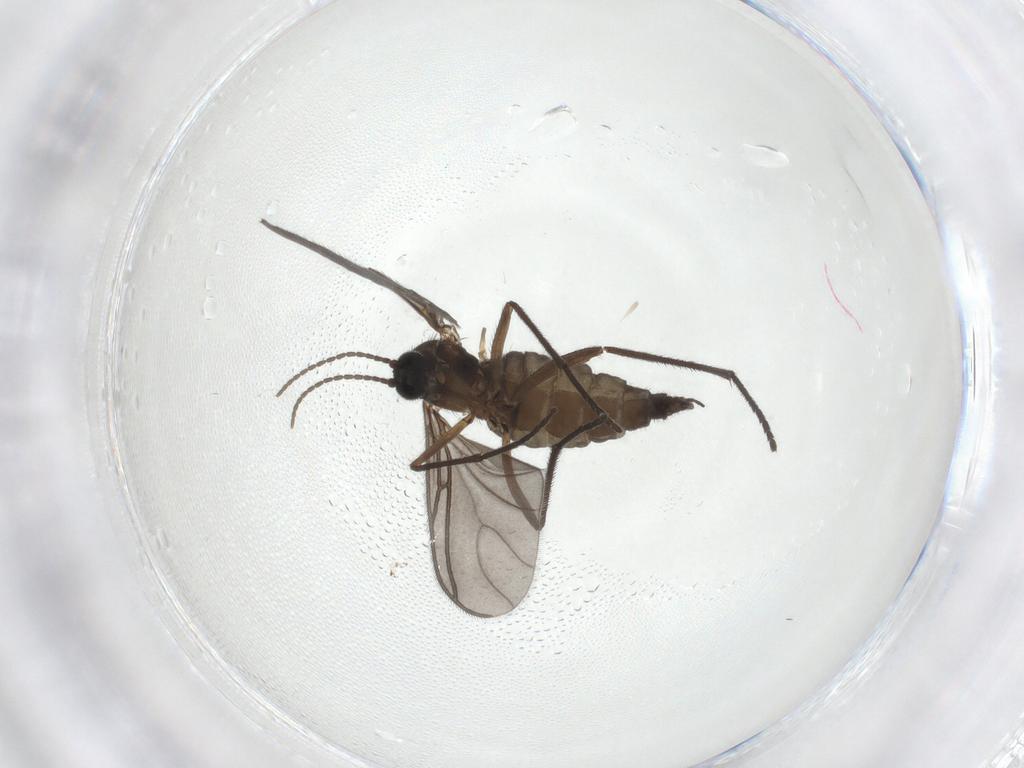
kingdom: Animalia
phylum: Arthropoda
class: Insecta
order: Diptera
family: Sciaridae
